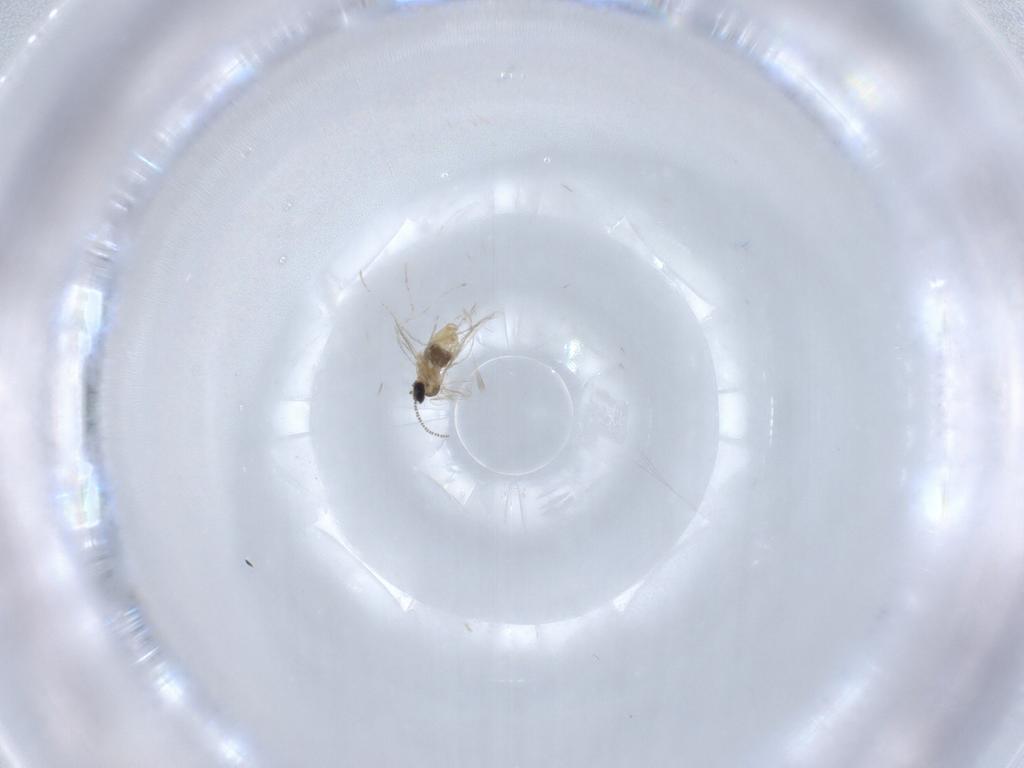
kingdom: Animalia
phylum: Arthropoda
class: Insecta
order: Diptera
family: Cecidomyiidae
